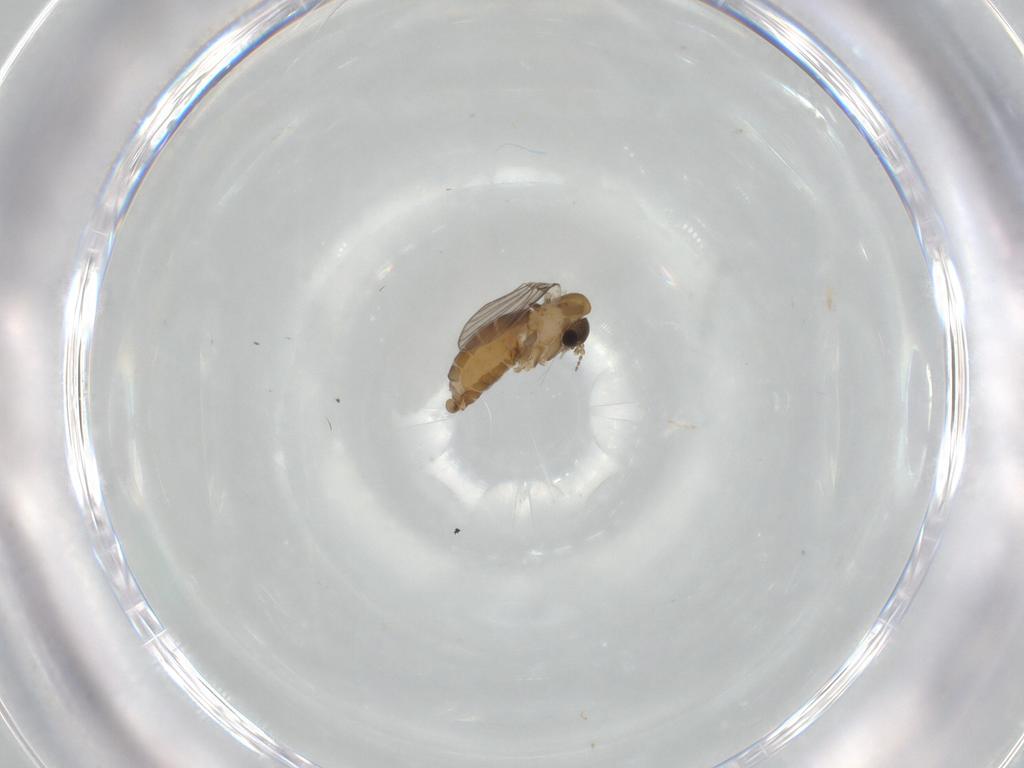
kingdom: Animalia
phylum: Arthropoda
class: Insecta
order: Diptera
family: Psychodidae
